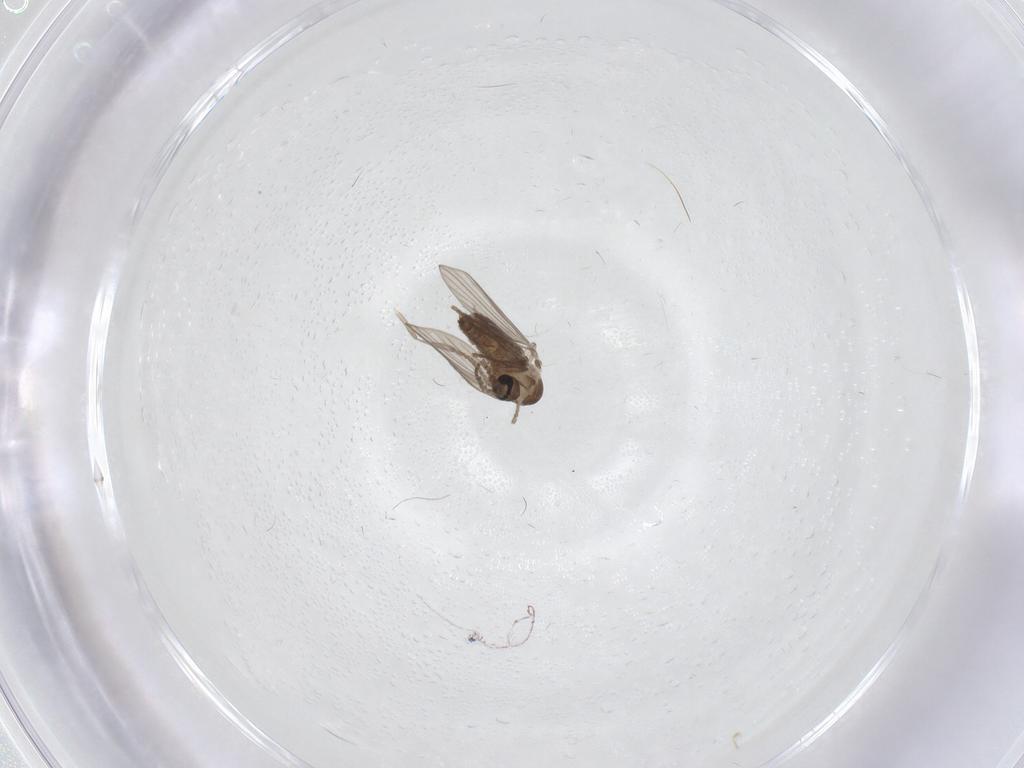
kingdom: Animalia
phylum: Arthropoda
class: Insecta
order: Diptera
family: Psychodidae
